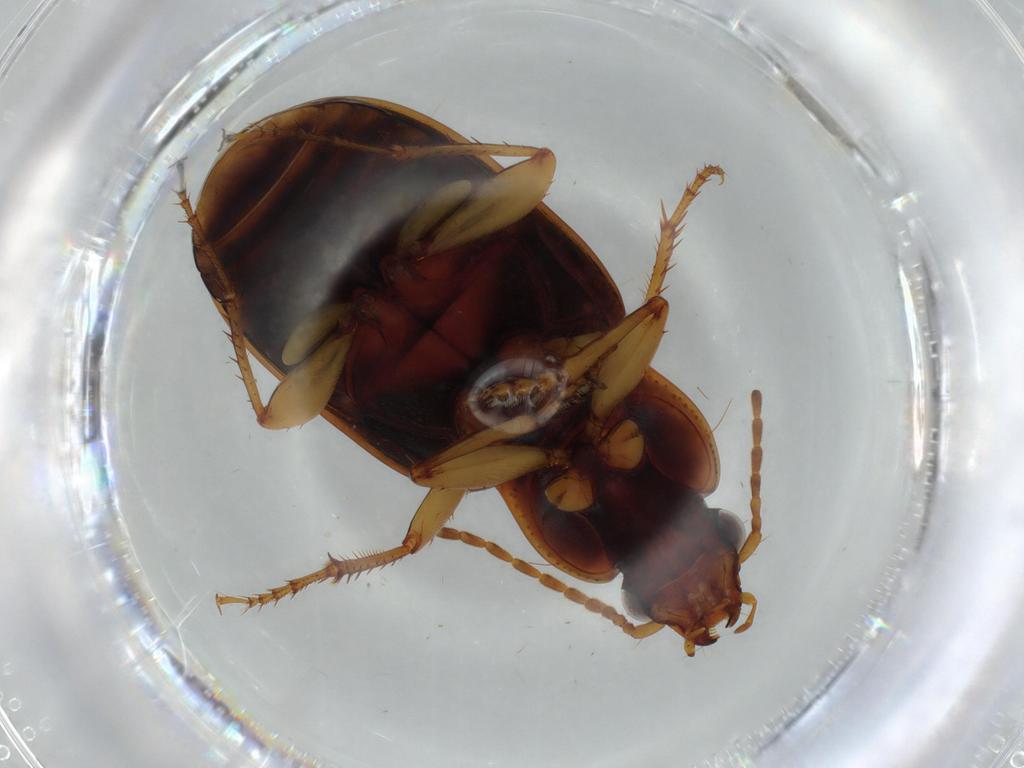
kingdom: Animalia
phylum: Arthropoda
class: Insecta
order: Coleoptera
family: Carabidae
